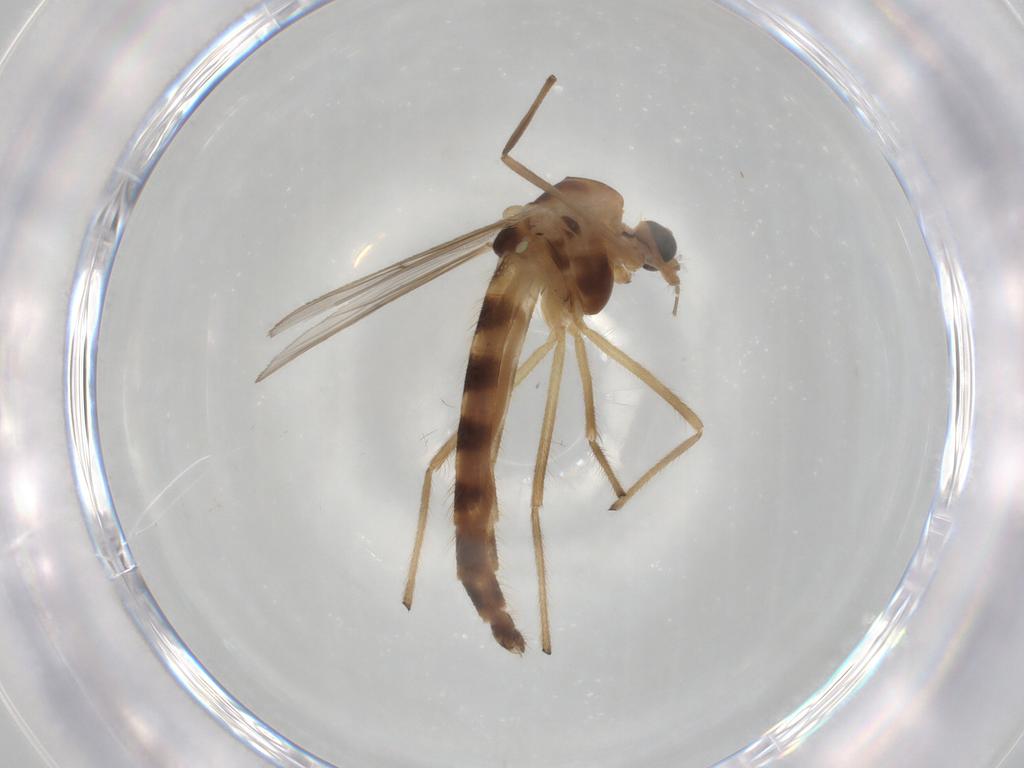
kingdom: Animalia
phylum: Arthropoda
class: Insecta
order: Diptera
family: Chironomidae
